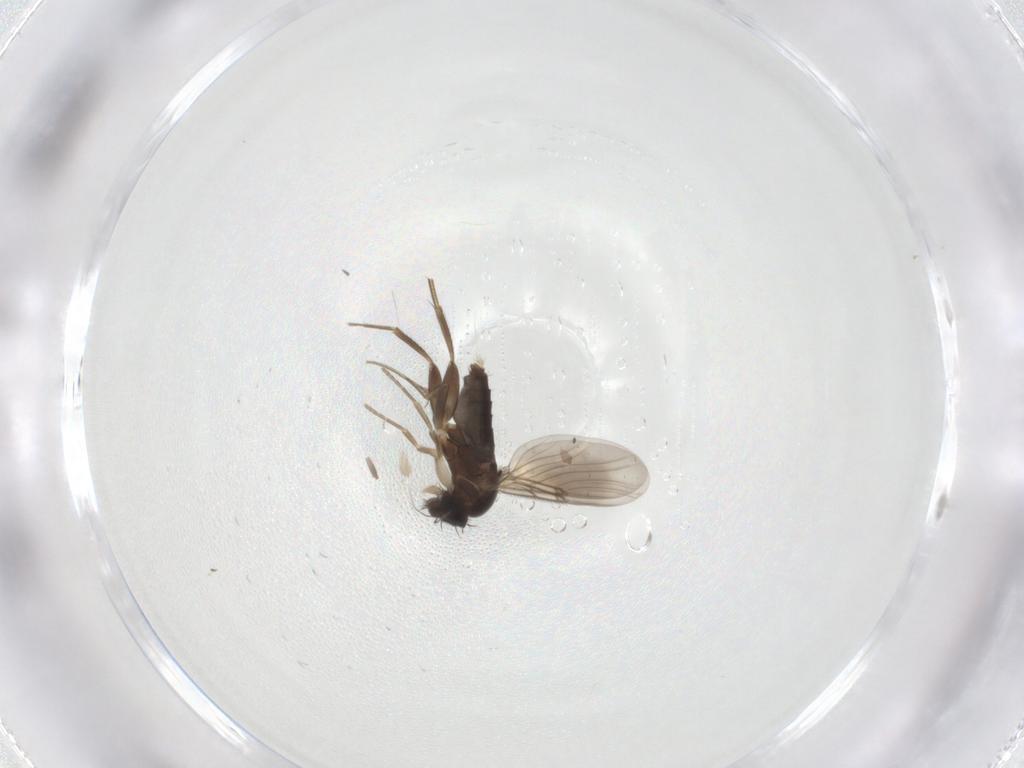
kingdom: Animalia
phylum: Arthropoda
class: Insecta
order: Diptera
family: Phoridae
